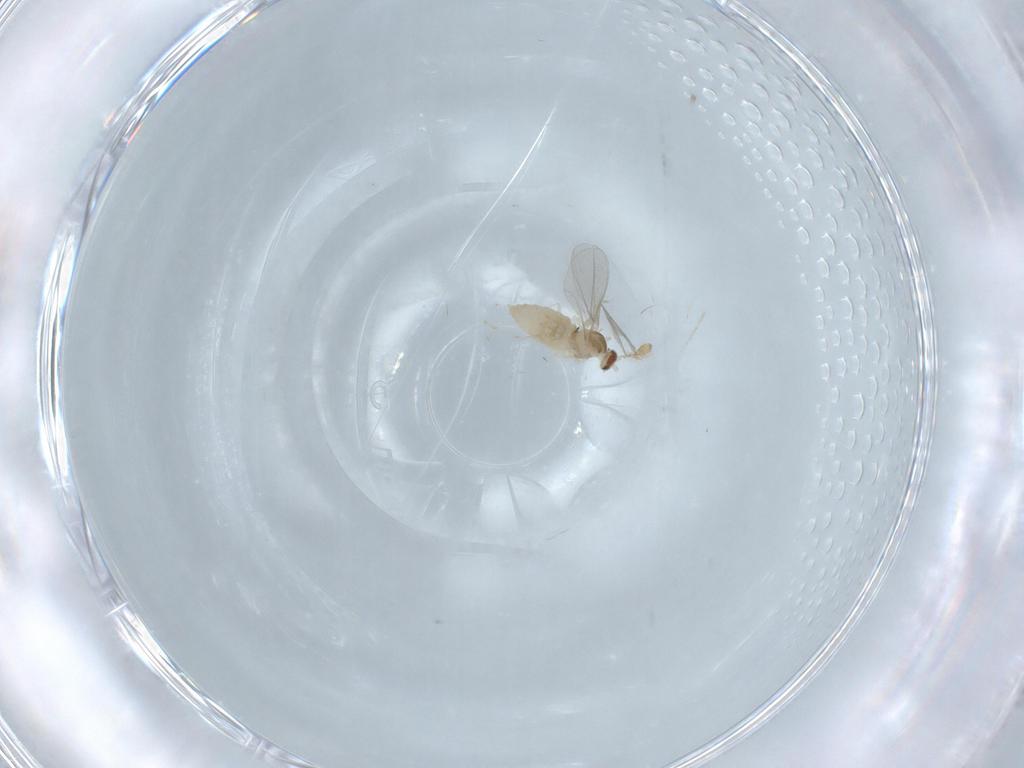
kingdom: Animalia
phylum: Arthropoda
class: Insecta
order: Diptera
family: Cecidomyiidae
